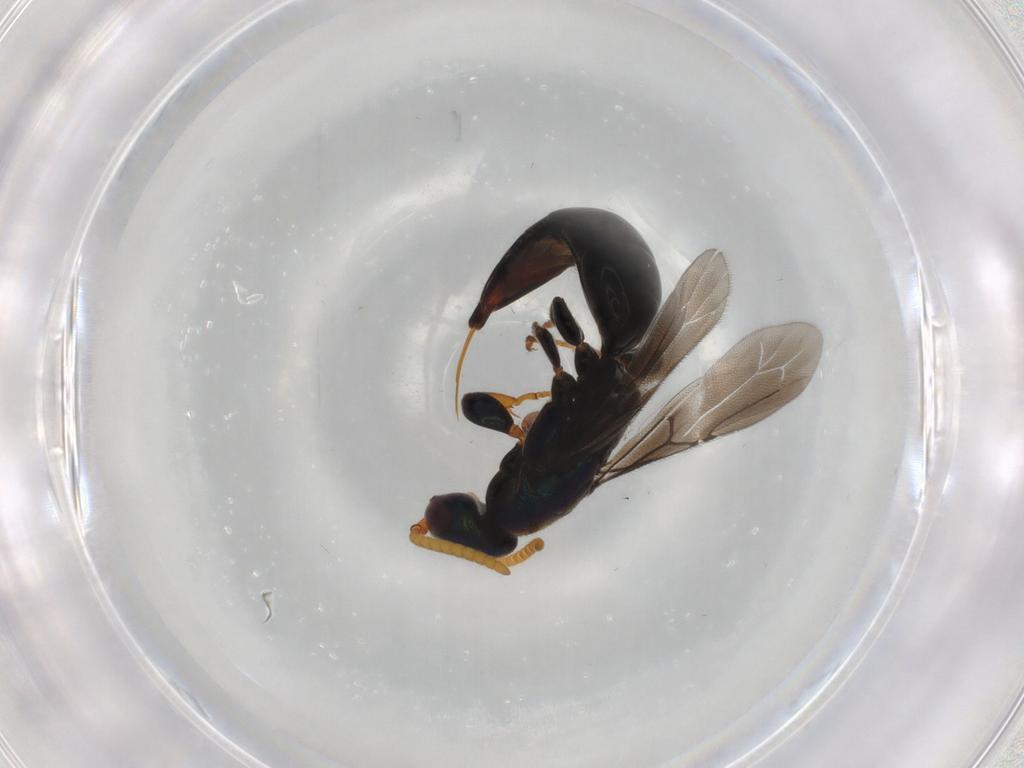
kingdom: Animalia
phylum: Arthropoda
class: Insecta
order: Hymenoptera
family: Bethylidae
